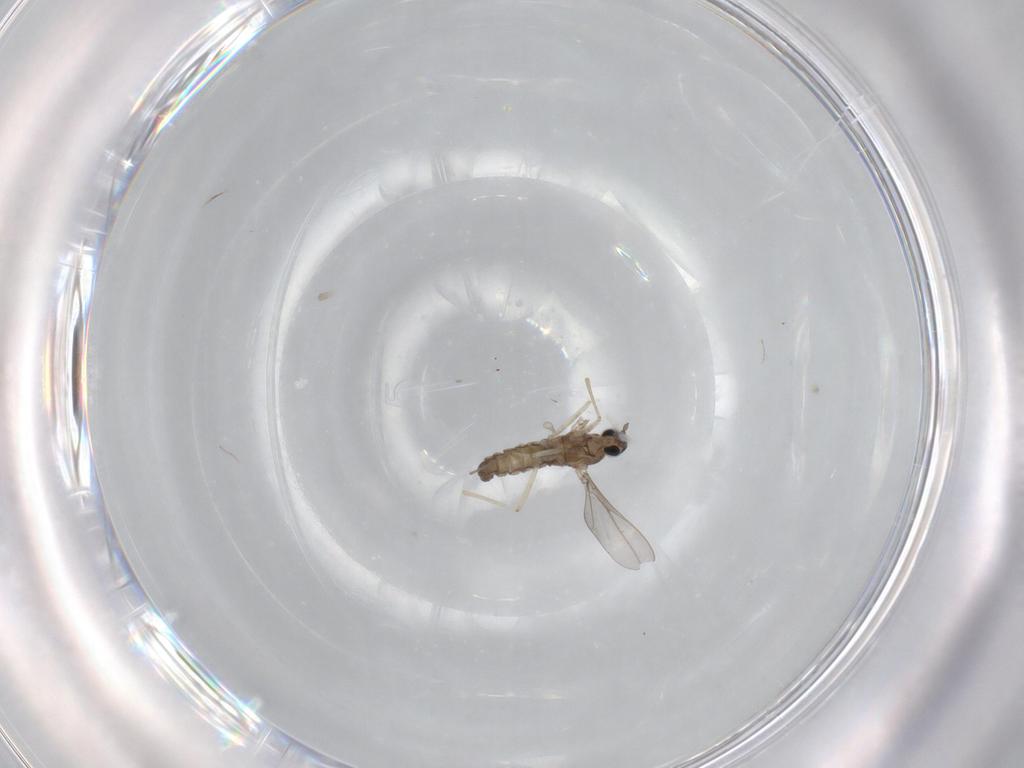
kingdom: Animalia
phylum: Arthropoda
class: Insecta
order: Diptera
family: Cecidomyiidae
